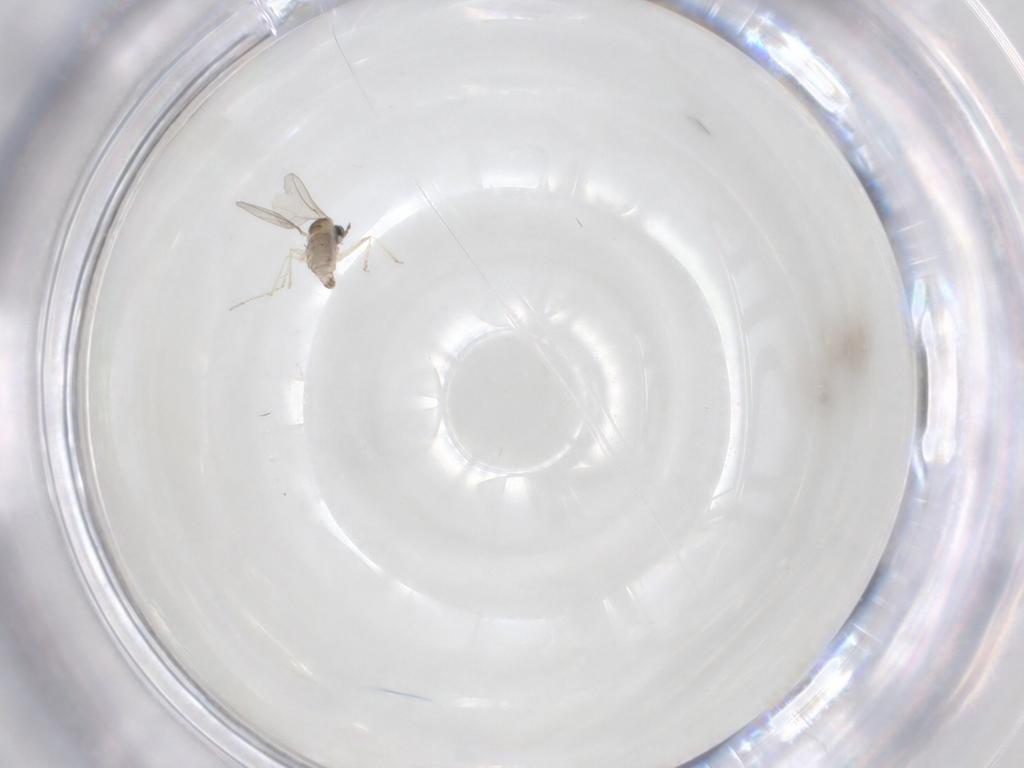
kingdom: Animalia
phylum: Arthropoda
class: Insecta
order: Diptera
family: Cecidomyiidae
